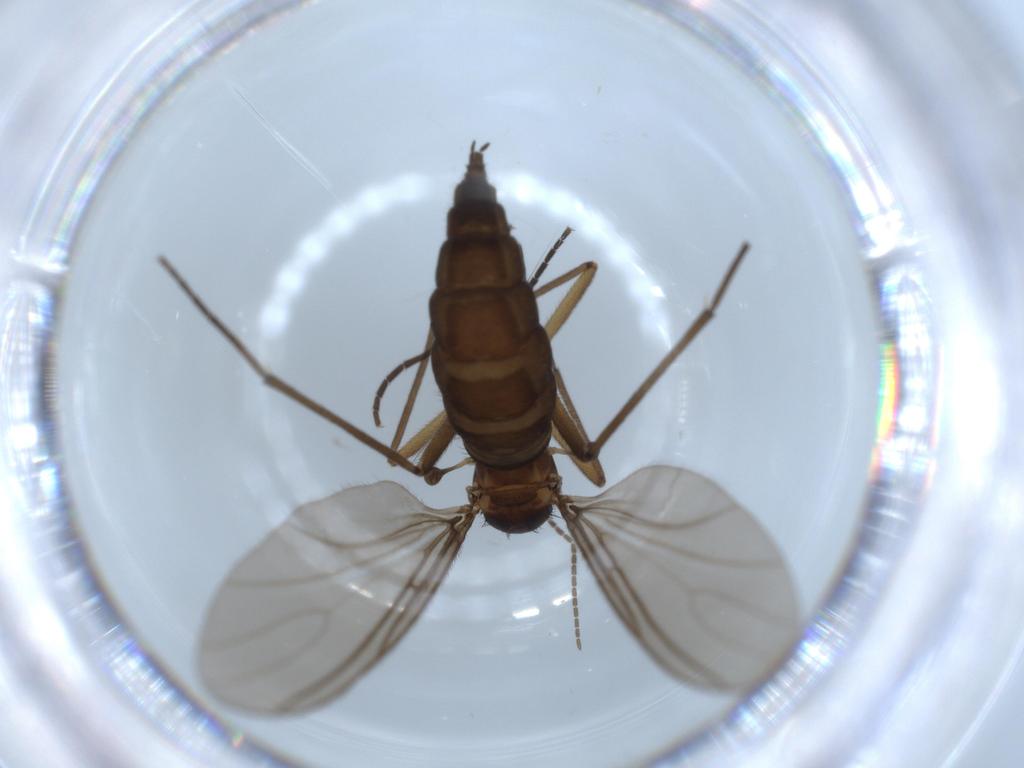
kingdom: Animalia
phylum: Arthropoda
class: Insecta
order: Diptera
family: Sciaridae
